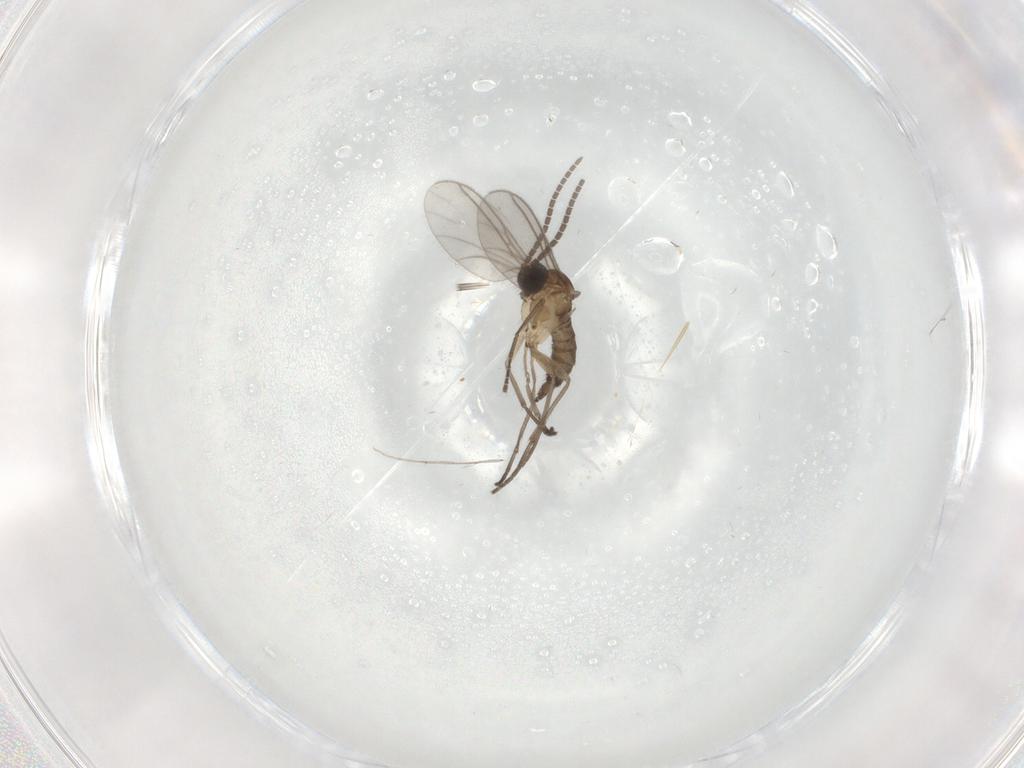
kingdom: Animalia
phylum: Arthropoda
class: Insecta
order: Diptera
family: Sciaridae
